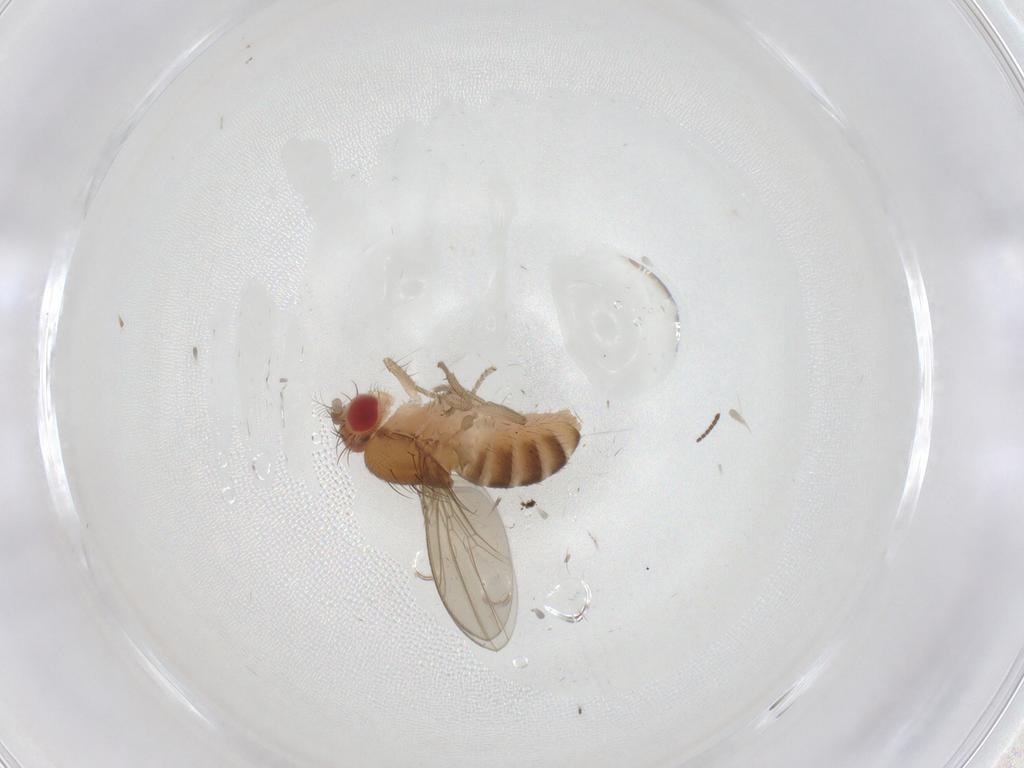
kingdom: Animalia
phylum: Arthropoda
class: Insecta
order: Diptera
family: Drosophilidae
